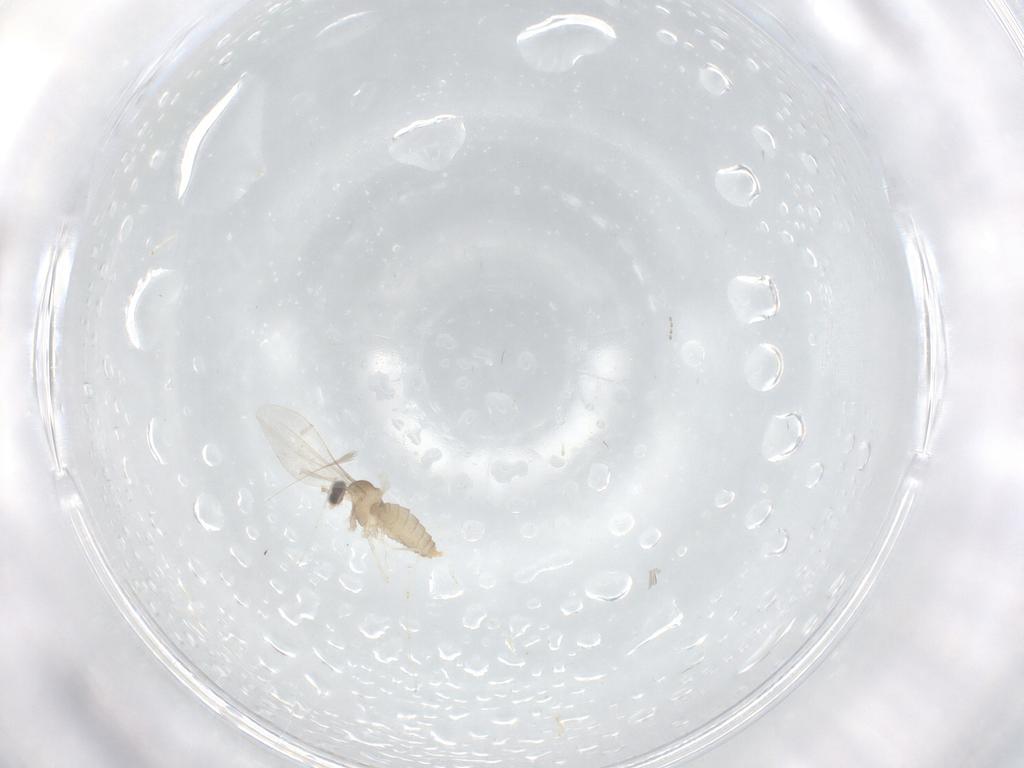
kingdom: Animalia
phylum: Arthropoda
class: Insecta
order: Diptera
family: Cecidomyiidae
